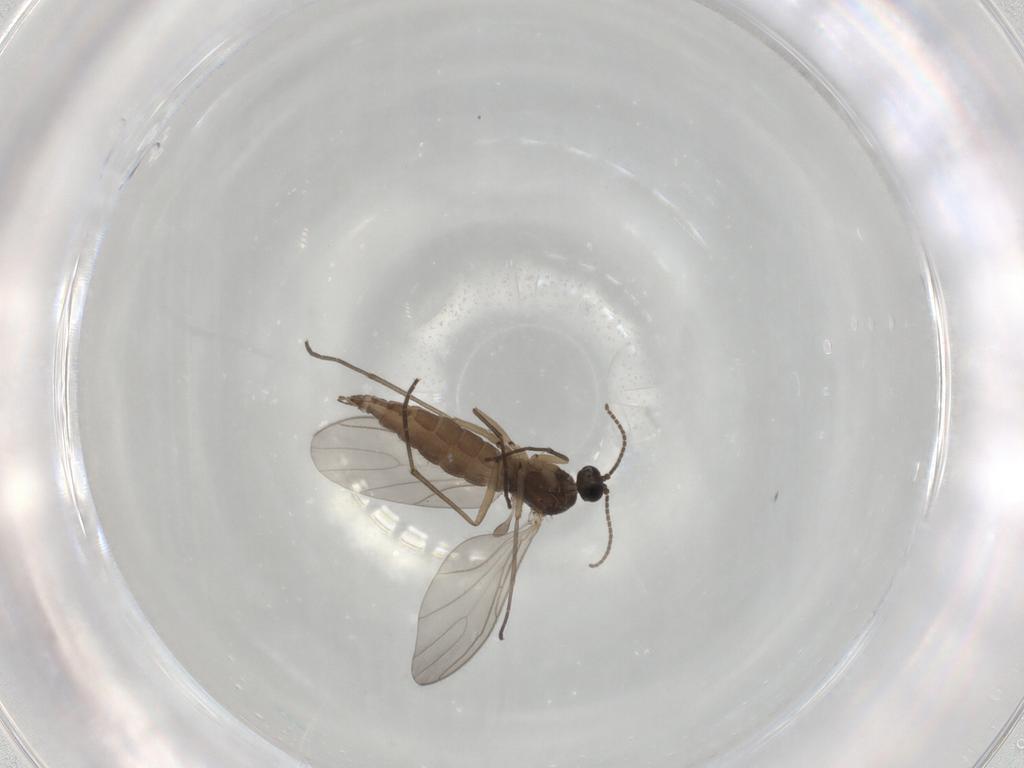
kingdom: Animalia
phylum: Arthropoda
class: Insecta
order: Diptera
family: Sciaridae
